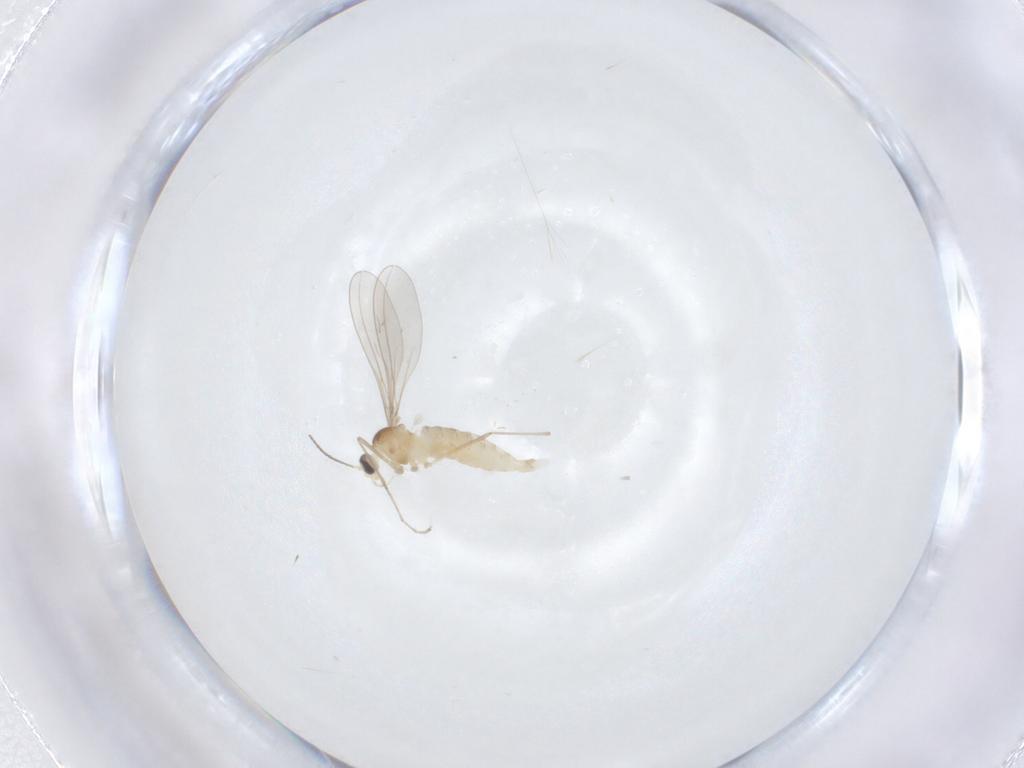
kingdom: Animalia
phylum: Arthropoda
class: Insecta
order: Diptera
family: Cecidomyiidae
